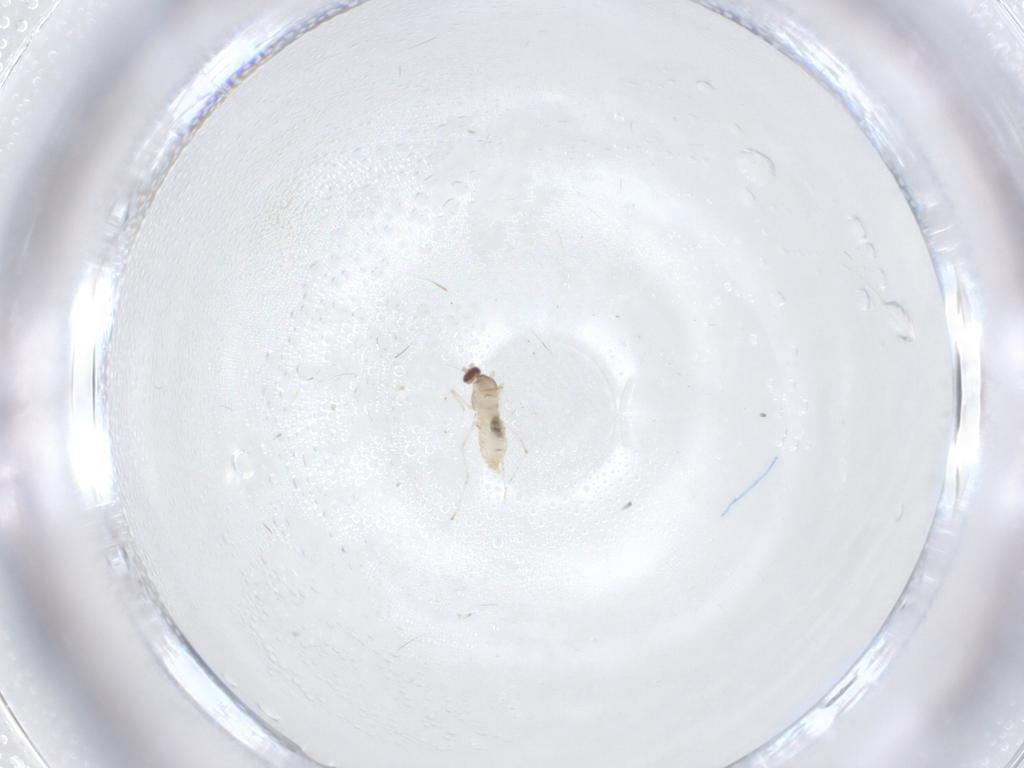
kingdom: Animalia
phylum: Arthropoda
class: Insecta
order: Diptera
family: Cecidomyiidae
